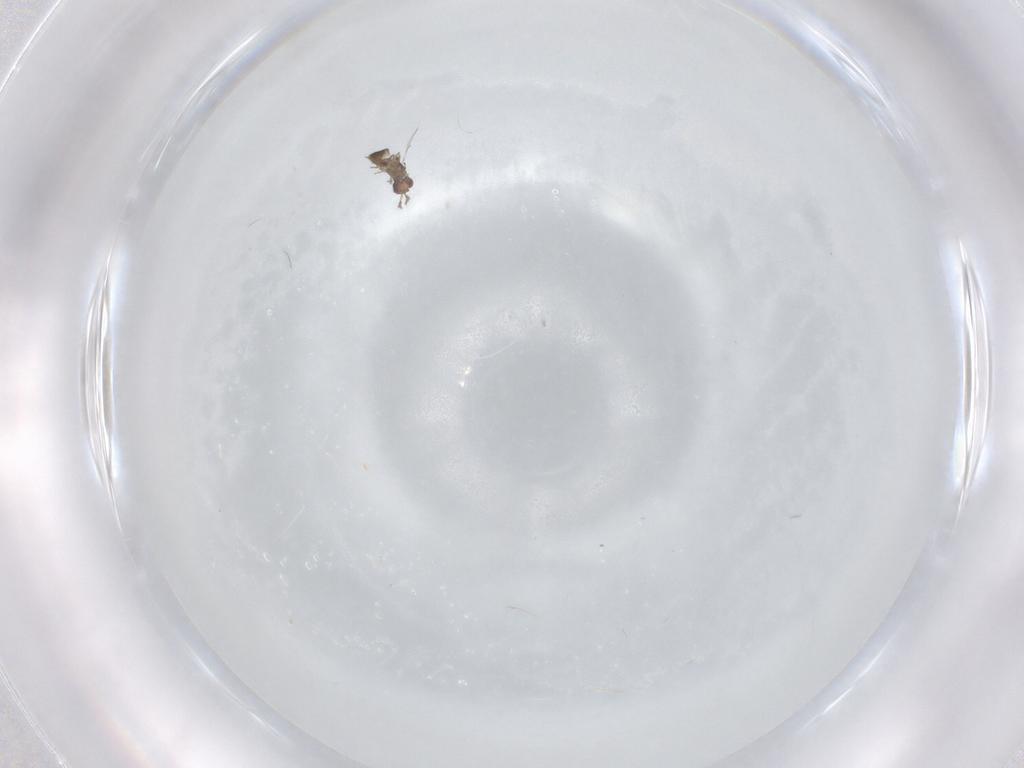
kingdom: Animalia
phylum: Arthropoda
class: Insecta
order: Hymenoptera
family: Trichogrammatidae
